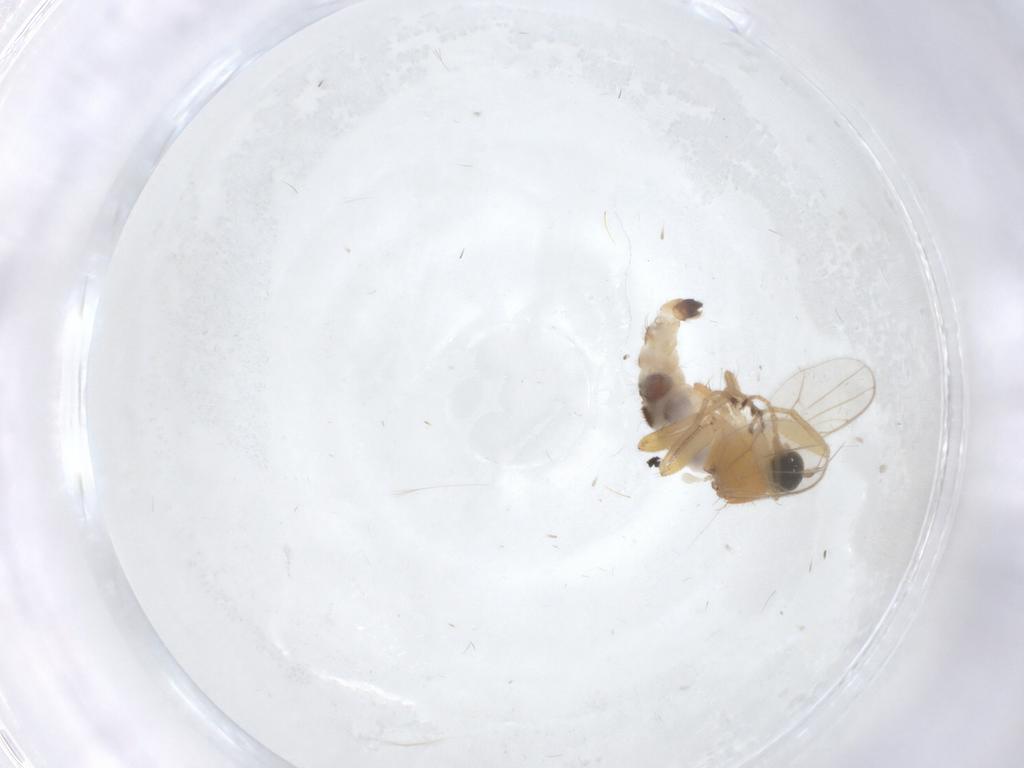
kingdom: Animalia
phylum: Arthropoda
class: Insecta
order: Diptera
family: Hybotidae
